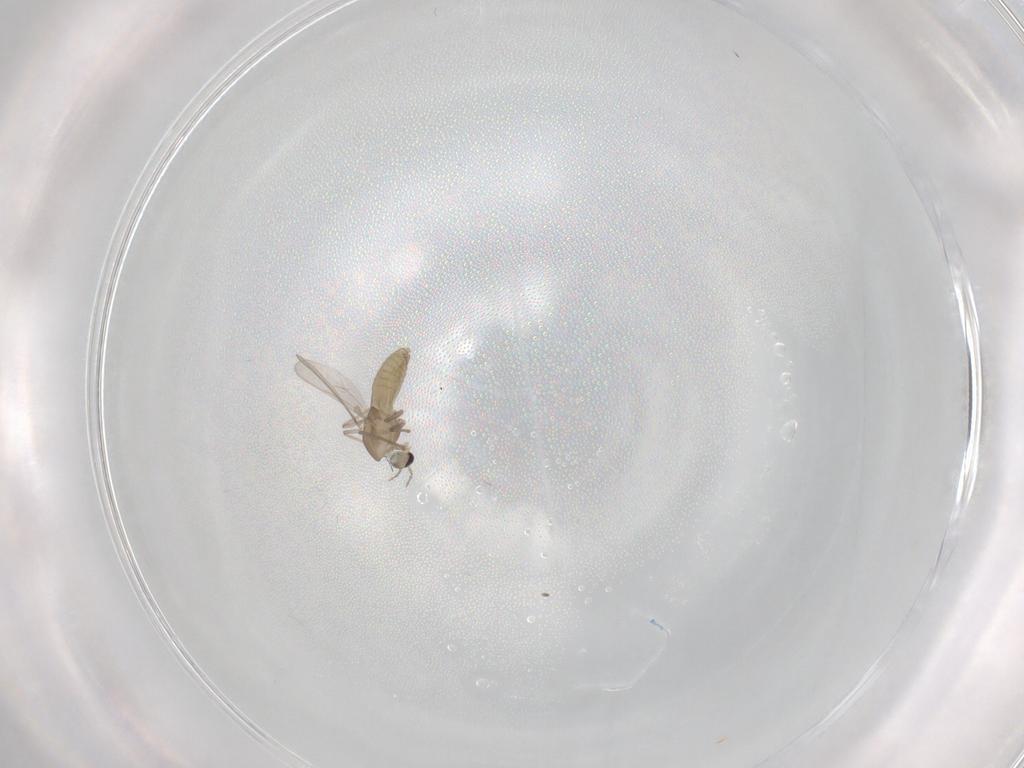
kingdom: Animalia
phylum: Arthropoda
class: Insecta
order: Diptera
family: Chironomidae
